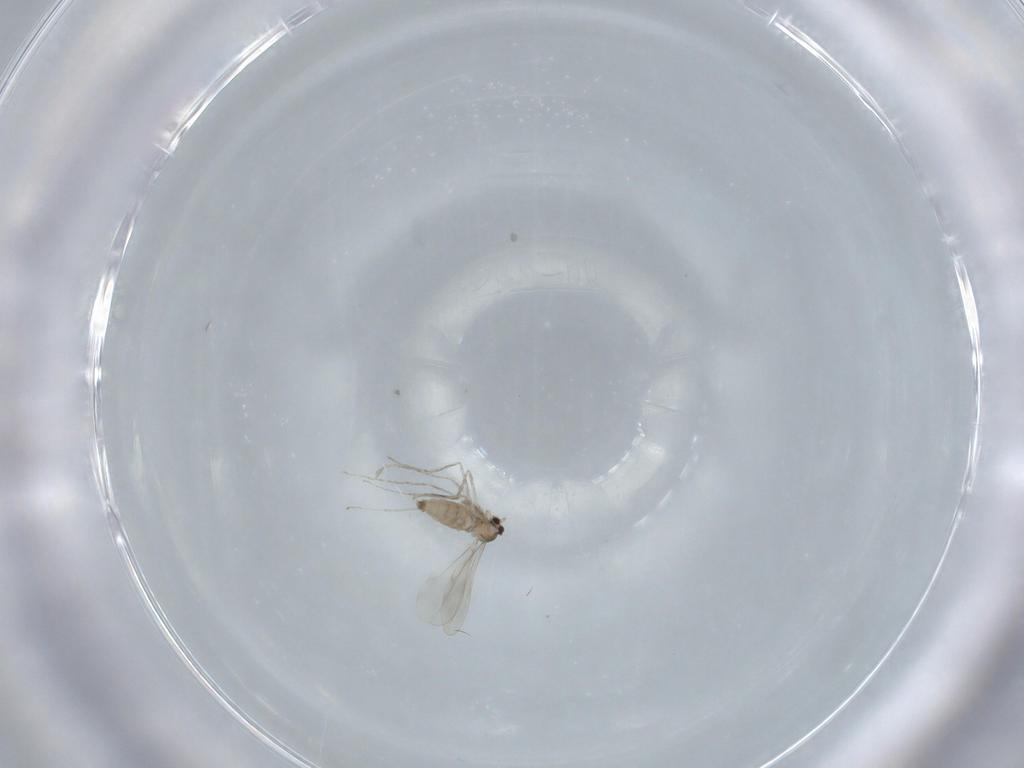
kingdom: Animalia
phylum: Arthropoda
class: Insecta
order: Diptera
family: Cecidomyiidae
